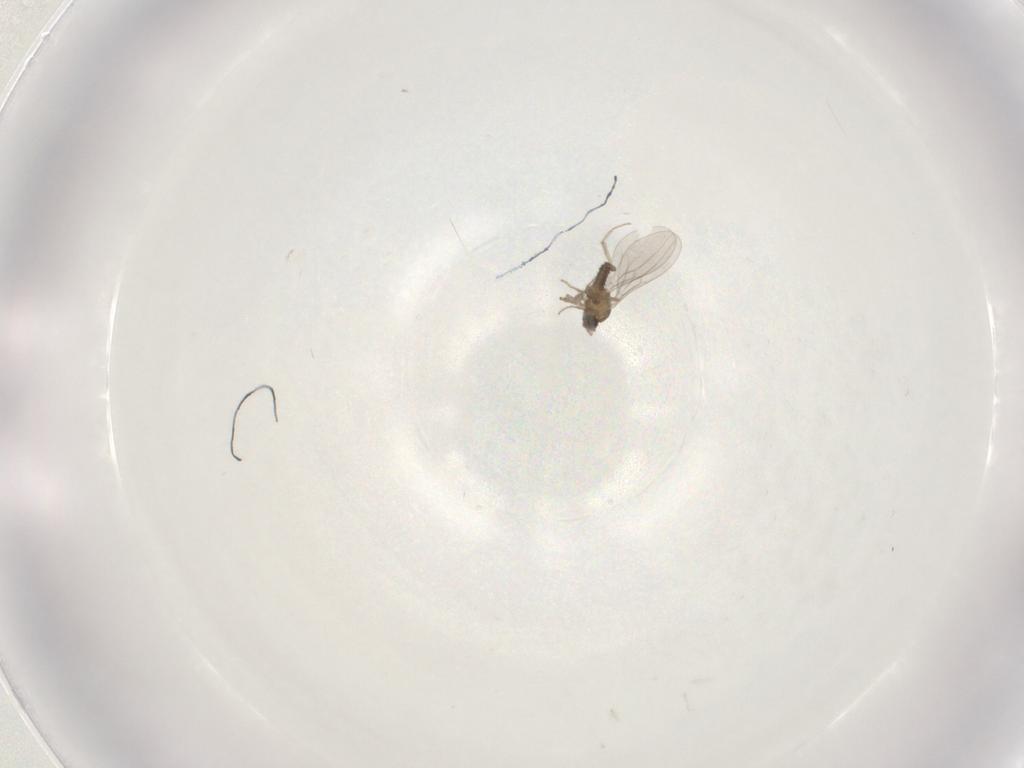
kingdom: Animalia
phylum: Arthropoda
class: Insecta
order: Diptera
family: Cecidomyiidae
